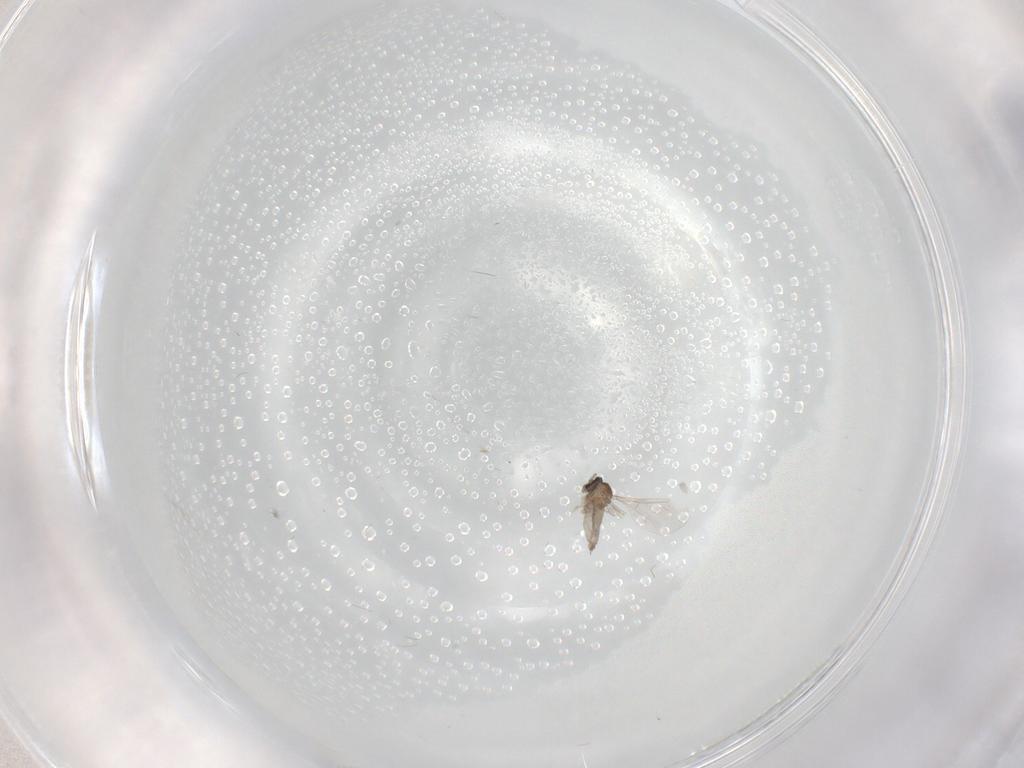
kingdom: Animalia
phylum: Arthropoda
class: Insecta
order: Diptera
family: Cecidomyiidae
